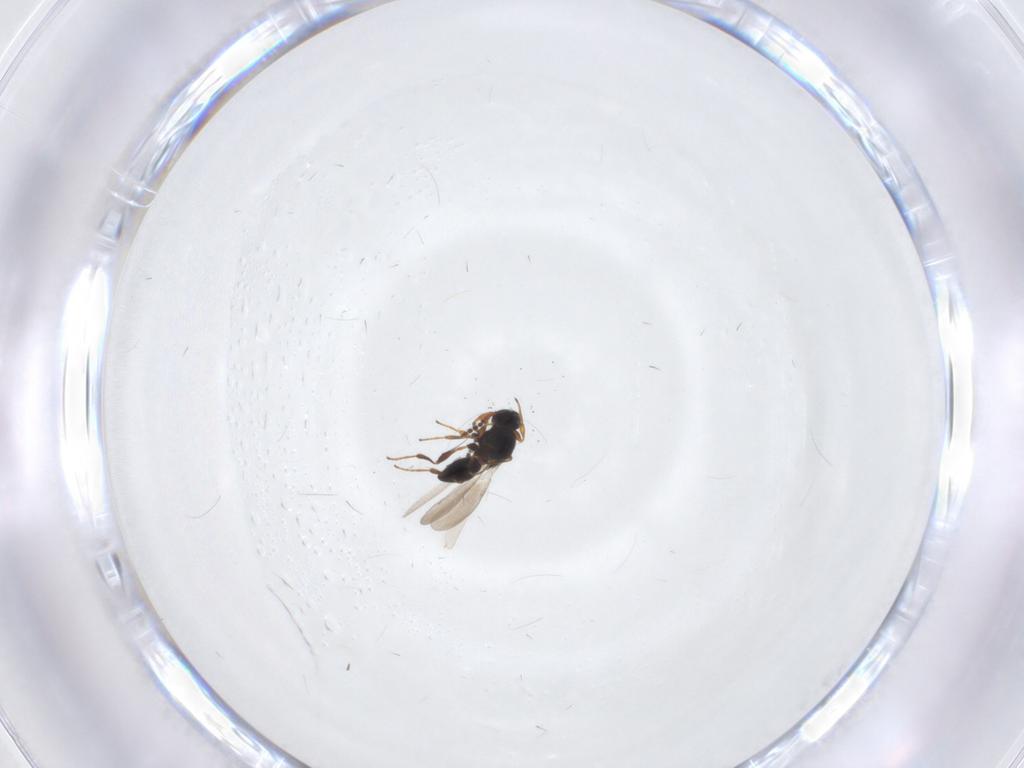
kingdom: Animalia
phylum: Arthropoda
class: Insecta
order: Hymenoptera
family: Platygastridae
